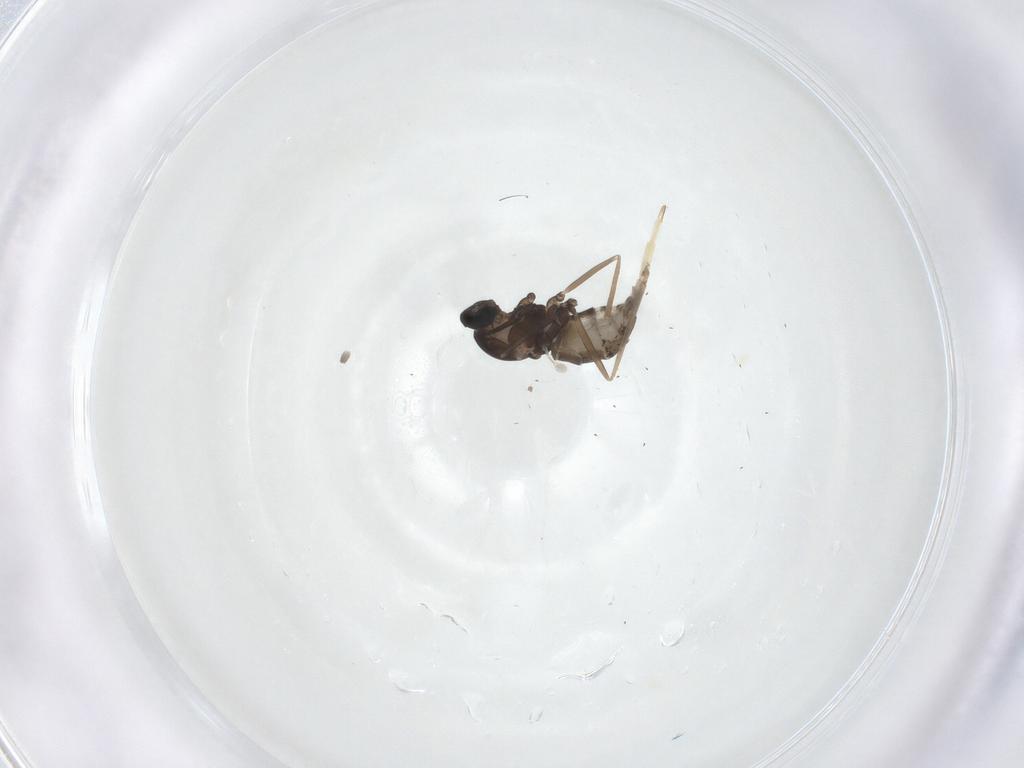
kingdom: Animalia
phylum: Arthropoda
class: Insecta
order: Diptera
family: Cecidomyiidae
